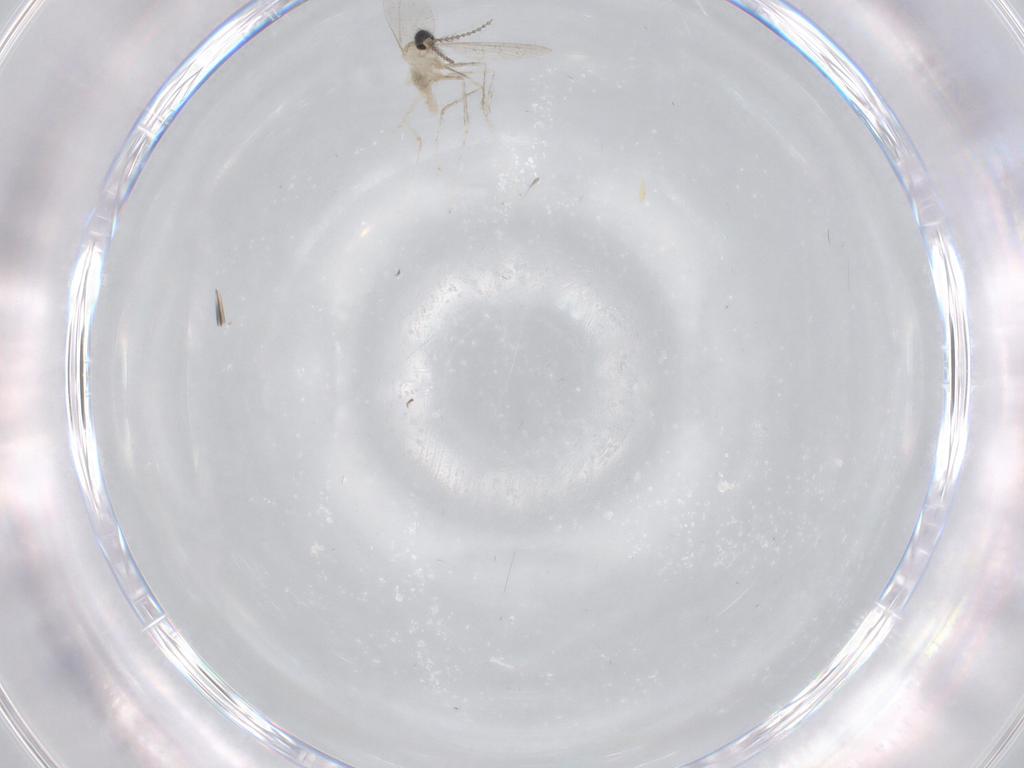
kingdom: Animalia
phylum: Arthropoda
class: Insecta
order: Diptera
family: Cecidomyiidae
